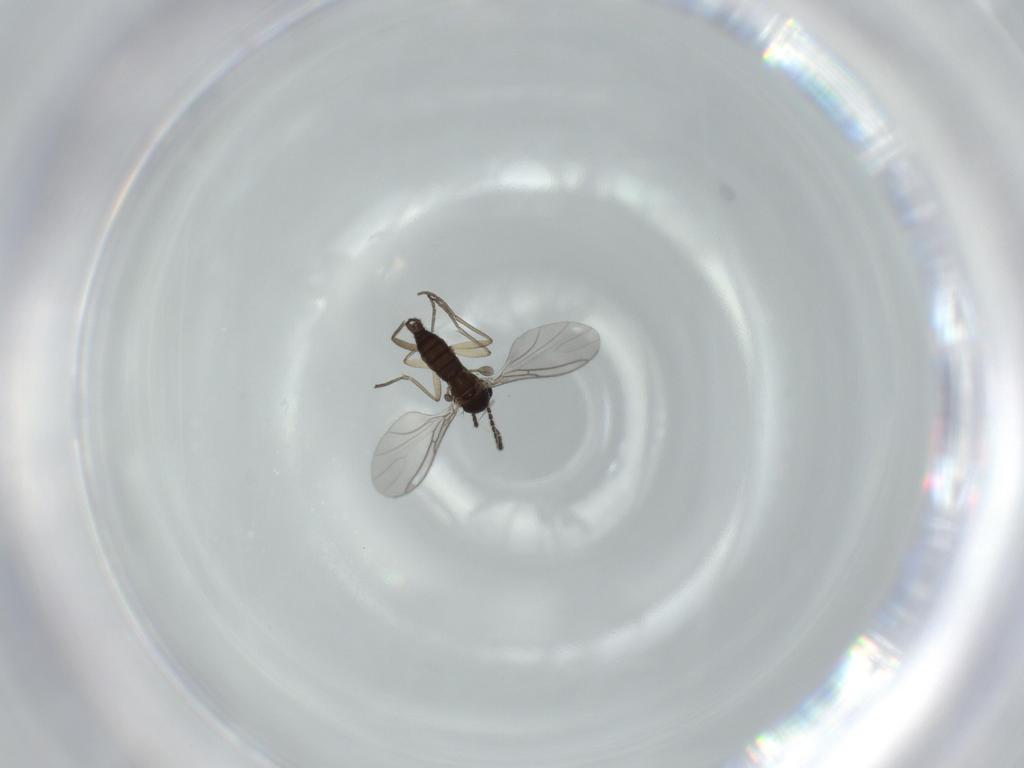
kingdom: Animalia
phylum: Arthropoda
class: Insecta
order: Diptera
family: Sciaridae
